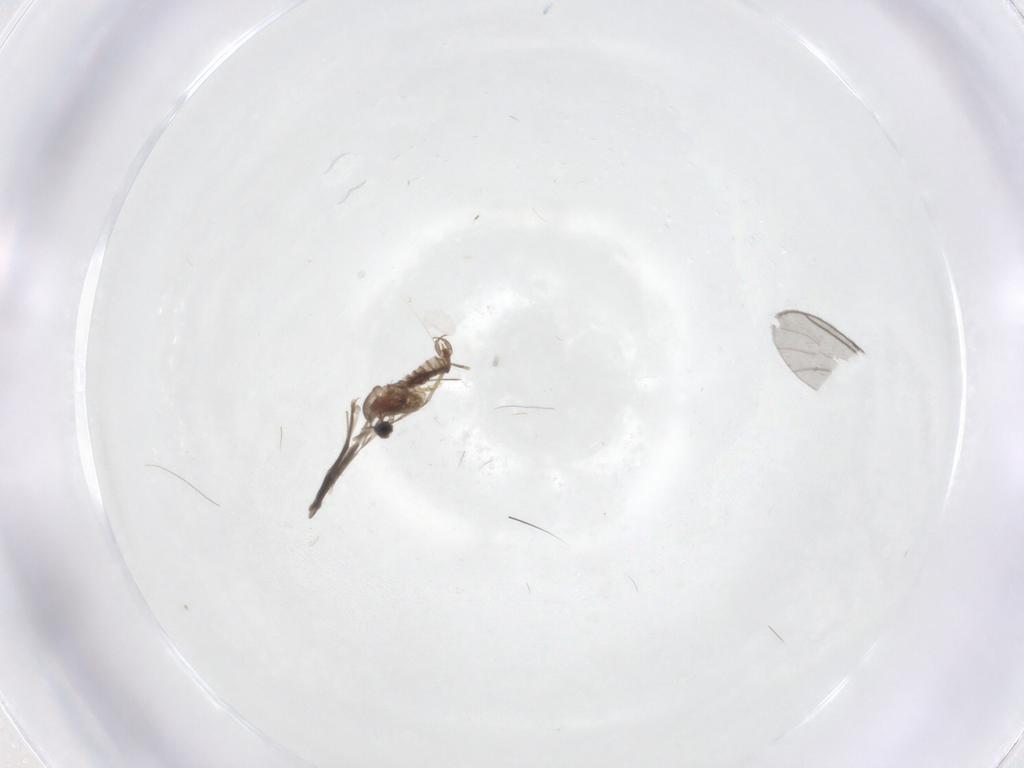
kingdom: Animalia
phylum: Arthropoda
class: Insecta
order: Diptera
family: Cecidomyiidae
